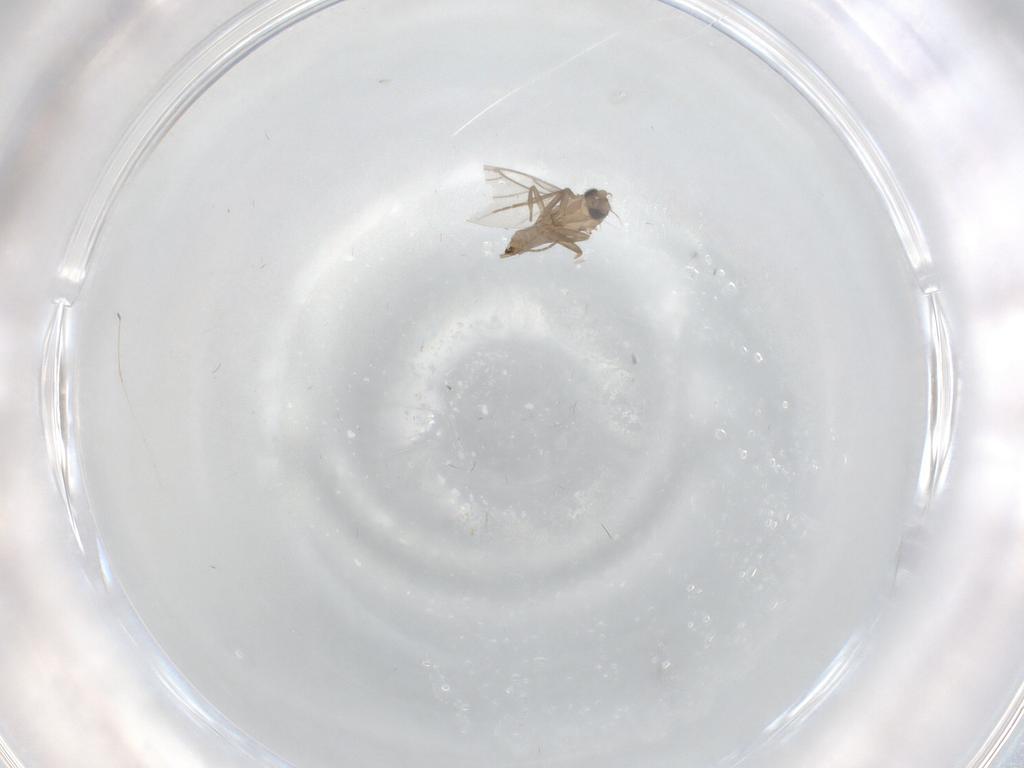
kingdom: Animalia
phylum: Arthropoda
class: Insecta
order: Diptera
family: Cecidomyiidae
